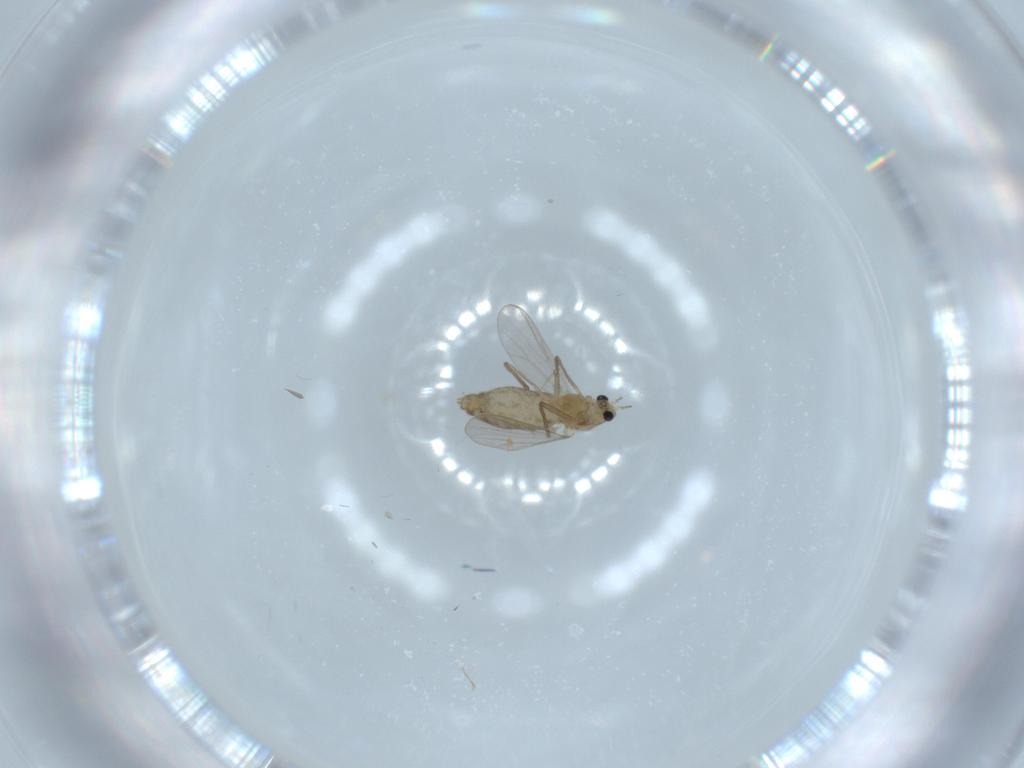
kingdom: Animalia
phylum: Arthropoda
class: Insecta
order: Diptera
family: Chironomidae
